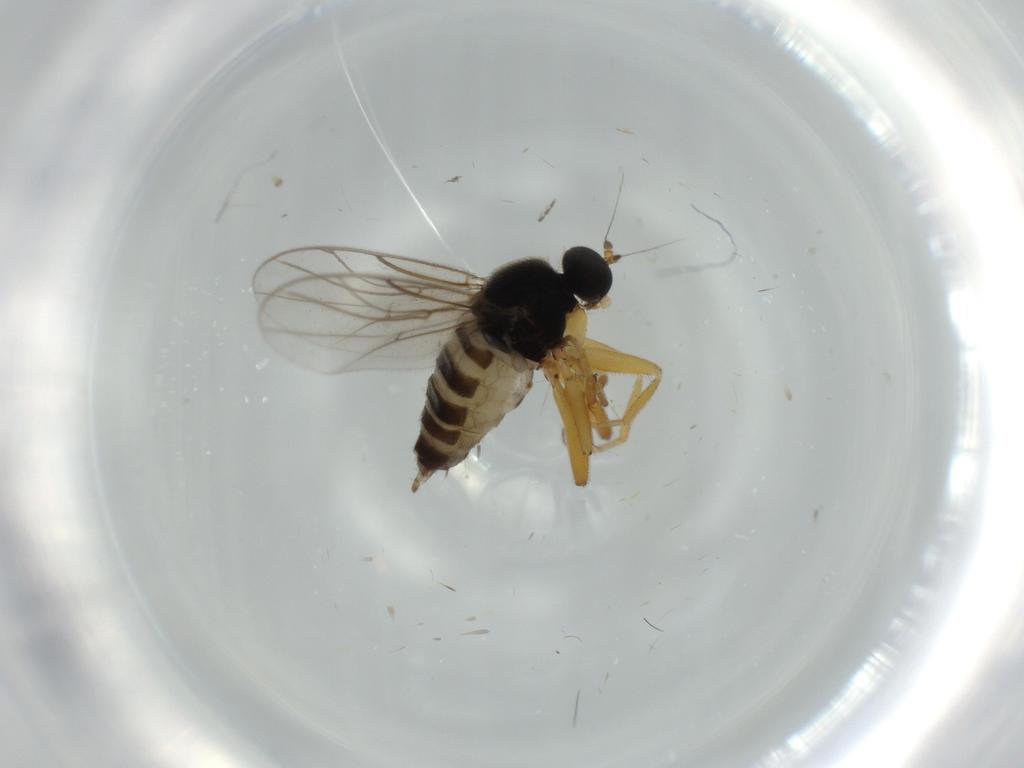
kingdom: Animalia
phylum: Arthropoda
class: Insecta
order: Diptera
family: Hybotidae
